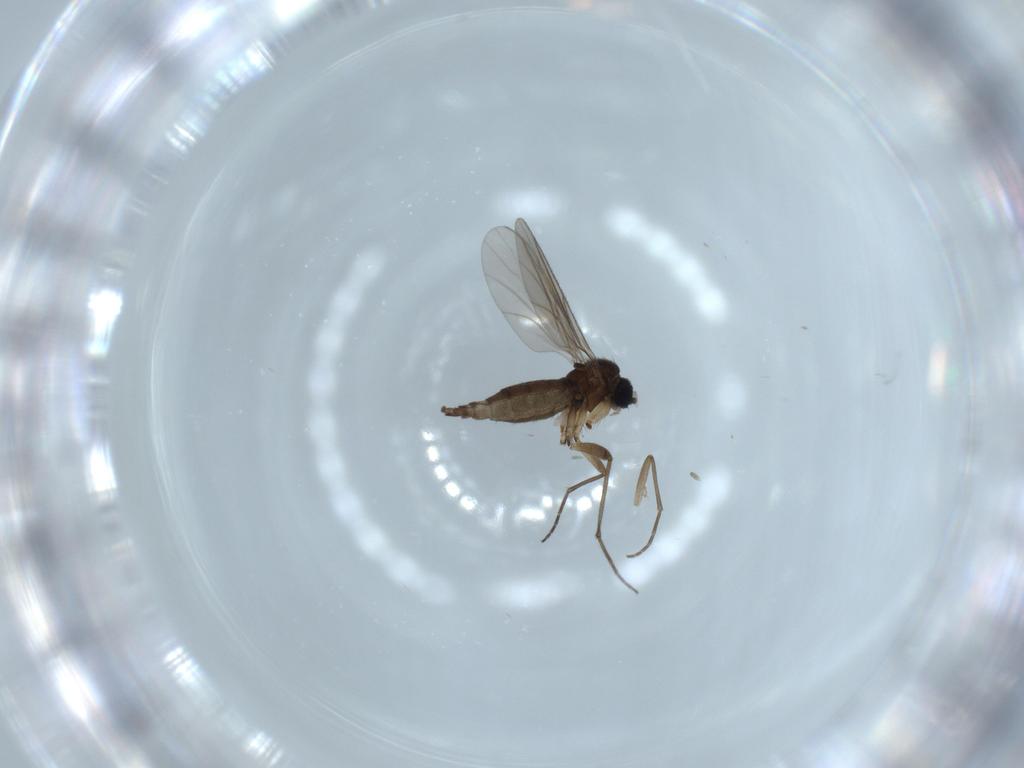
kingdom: Animalia
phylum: Arthropoda
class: Insecta
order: Diptera
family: Sciaridae
